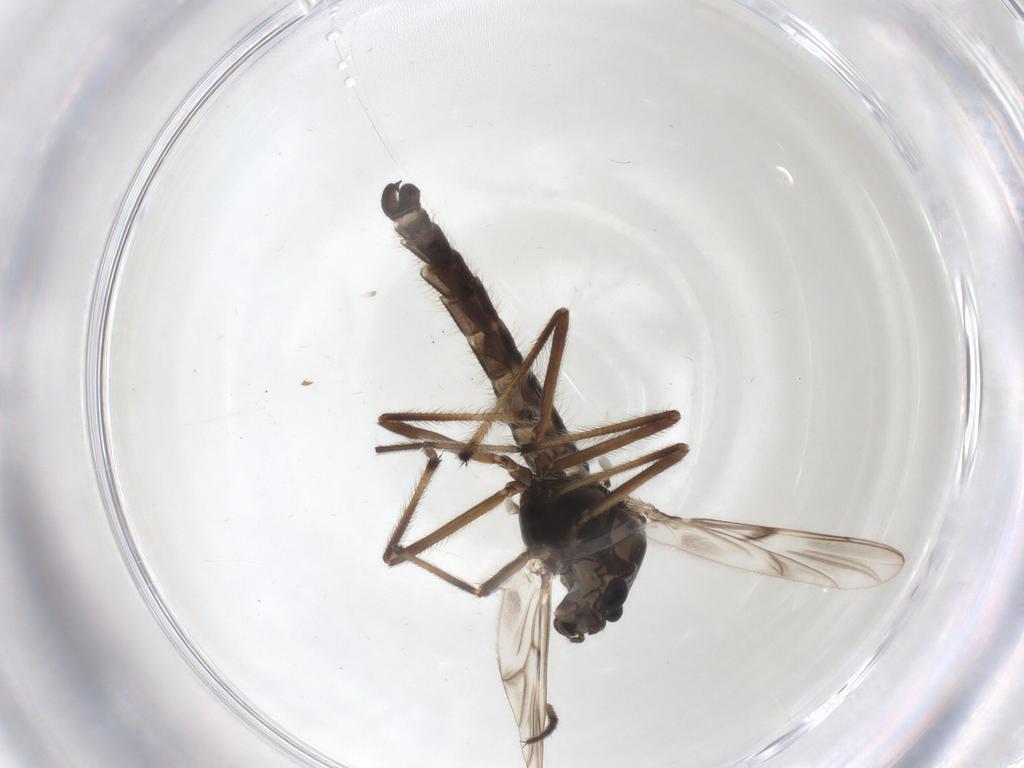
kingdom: Animalia
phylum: Arthropoda
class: Insecta
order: Diptera
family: Chironomidae
